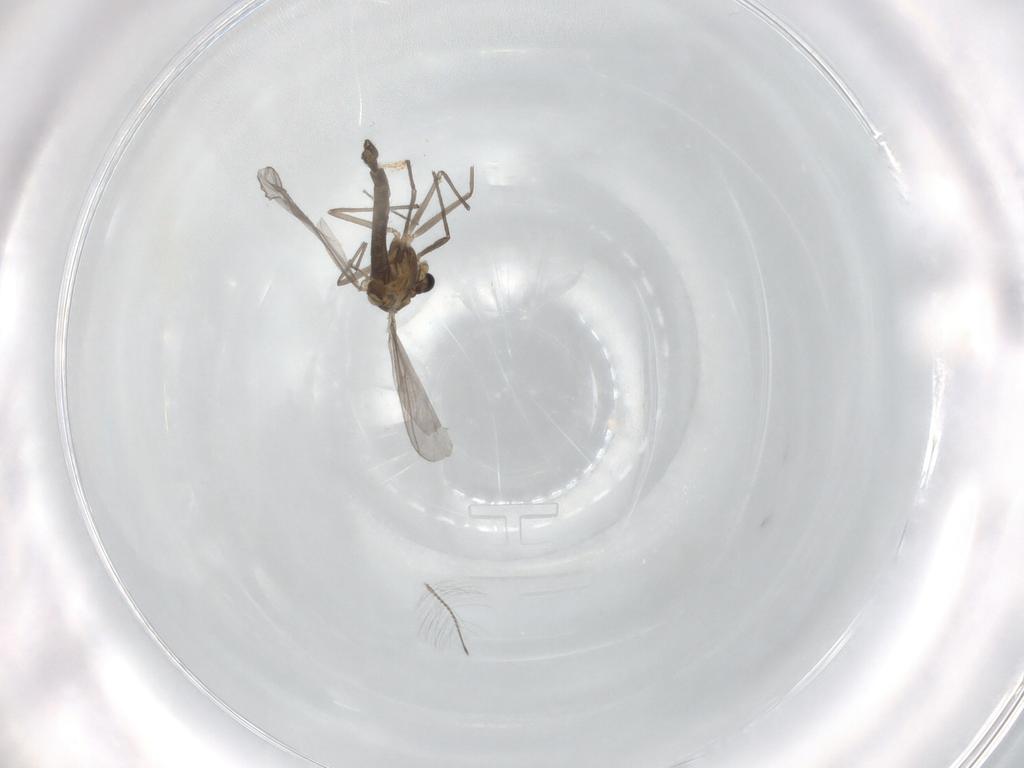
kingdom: Animalia
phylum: Arthropoda
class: Insecta
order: Diptera
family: Chironomidae
